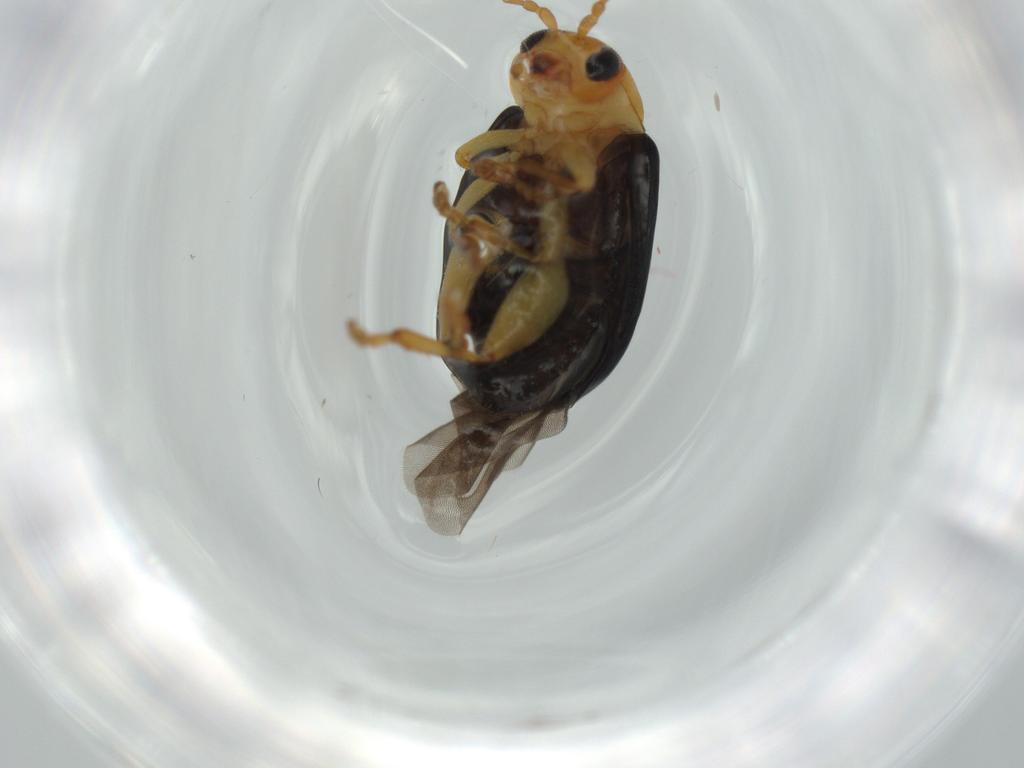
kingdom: Animalia
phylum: Arthropoda
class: Insecta
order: Coleoptera
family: Chrysomelidae
